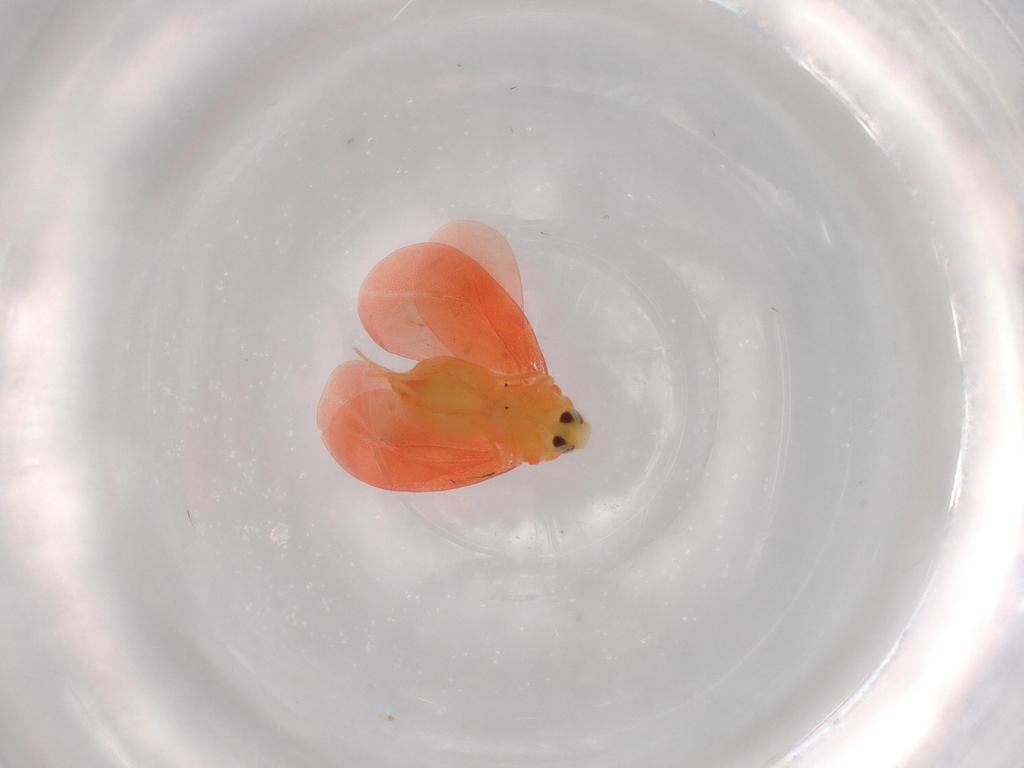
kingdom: Animalia
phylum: Arthropoda
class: Insecta
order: Hemiptera
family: Aleyrodidae
